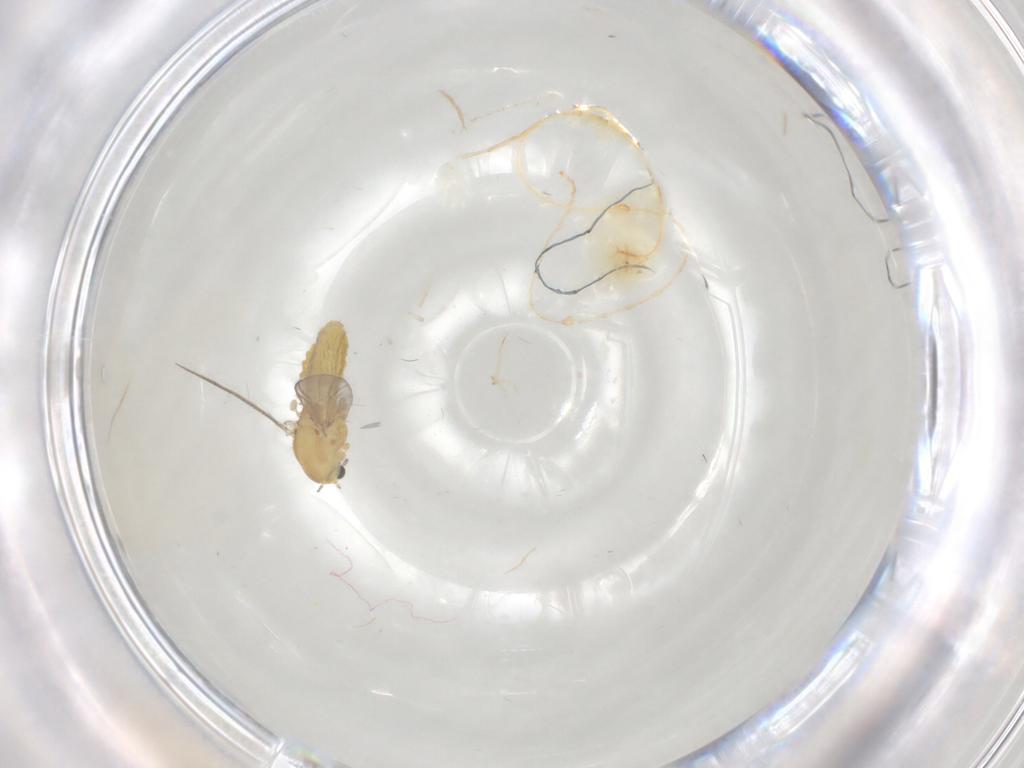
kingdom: Animalia
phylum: Arthropoda
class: Insecta
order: Diptera
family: Chironomidae
